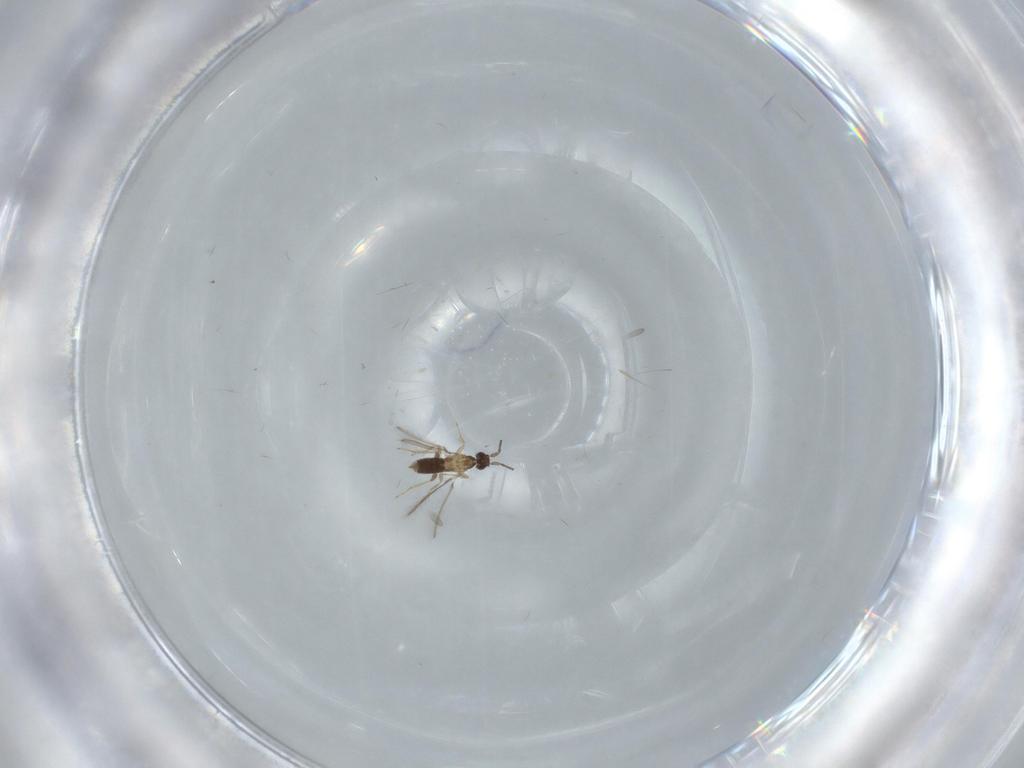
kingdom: Animalia
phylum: Arthropoda
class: Insecta
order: Hymenoptera
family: Mymaridae
